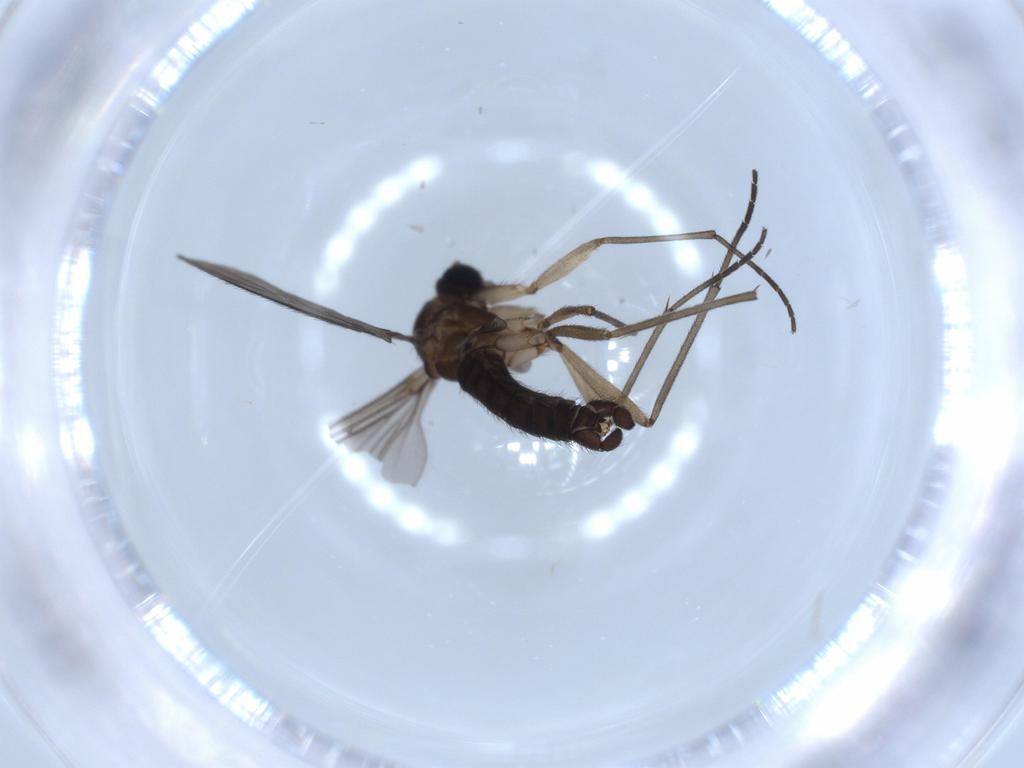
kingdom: Animalia
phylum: Arthropoda
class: Insecta
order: Diptera
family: Sciaridae
